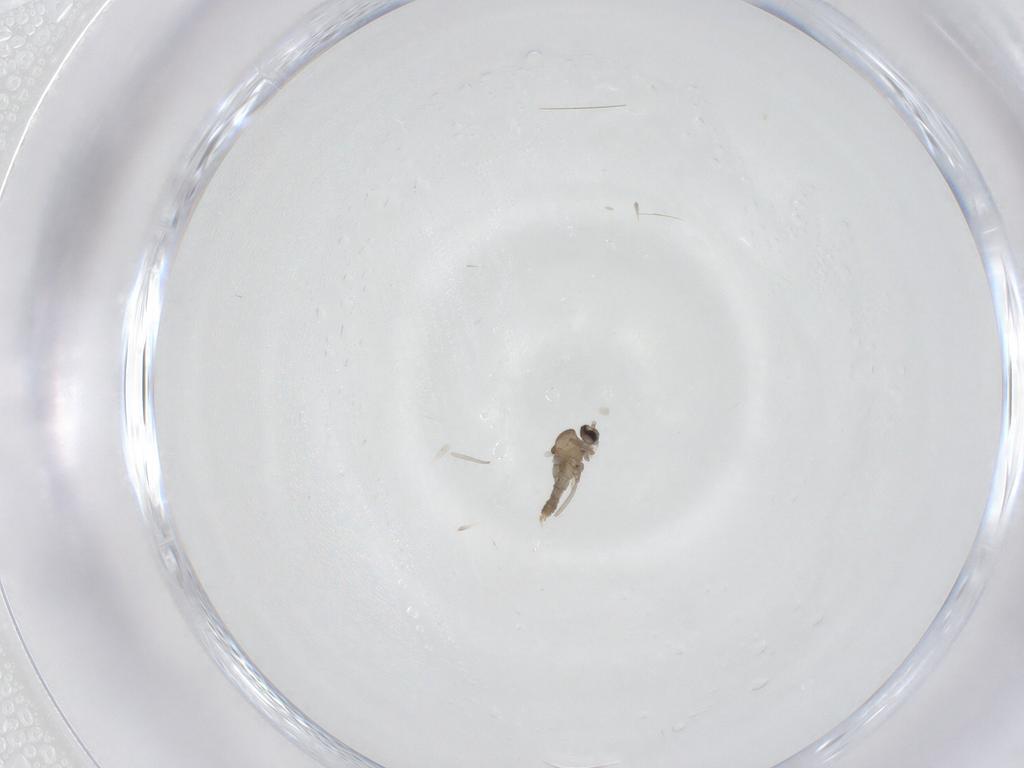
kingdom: Animalia
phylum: Arthropoda
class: Insecta
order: Diptera
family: Cecidomyiidae
